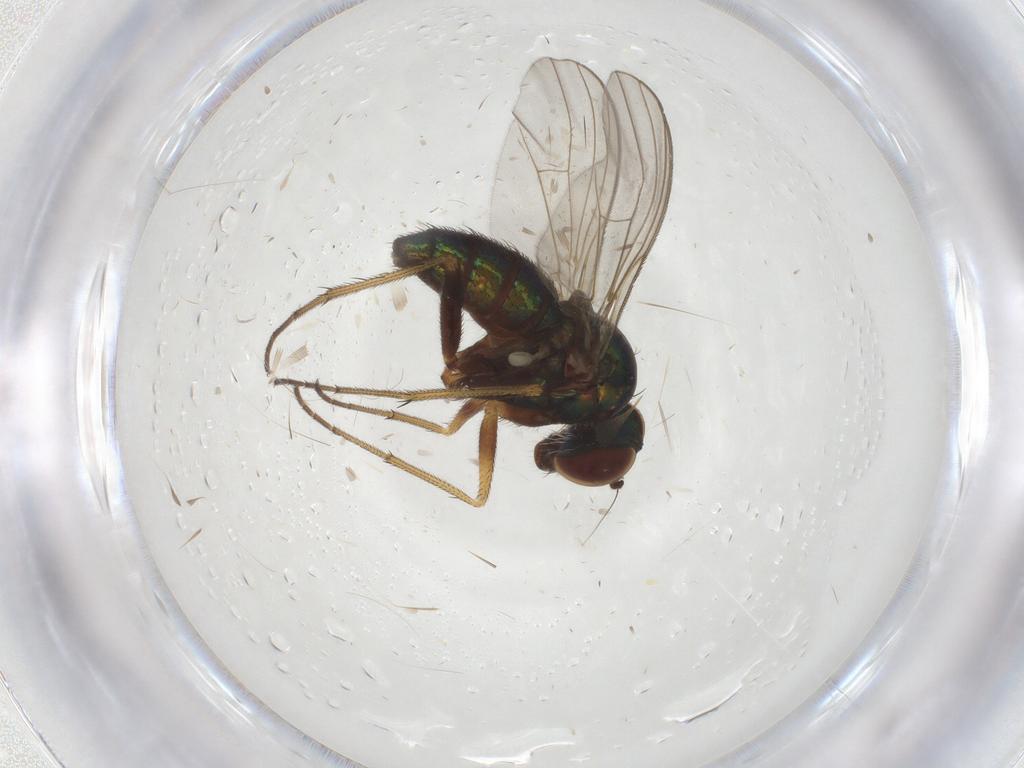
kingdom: Animalia
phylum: Arthropoda
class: Insecta
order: Diptera
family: Dolichopodidae
